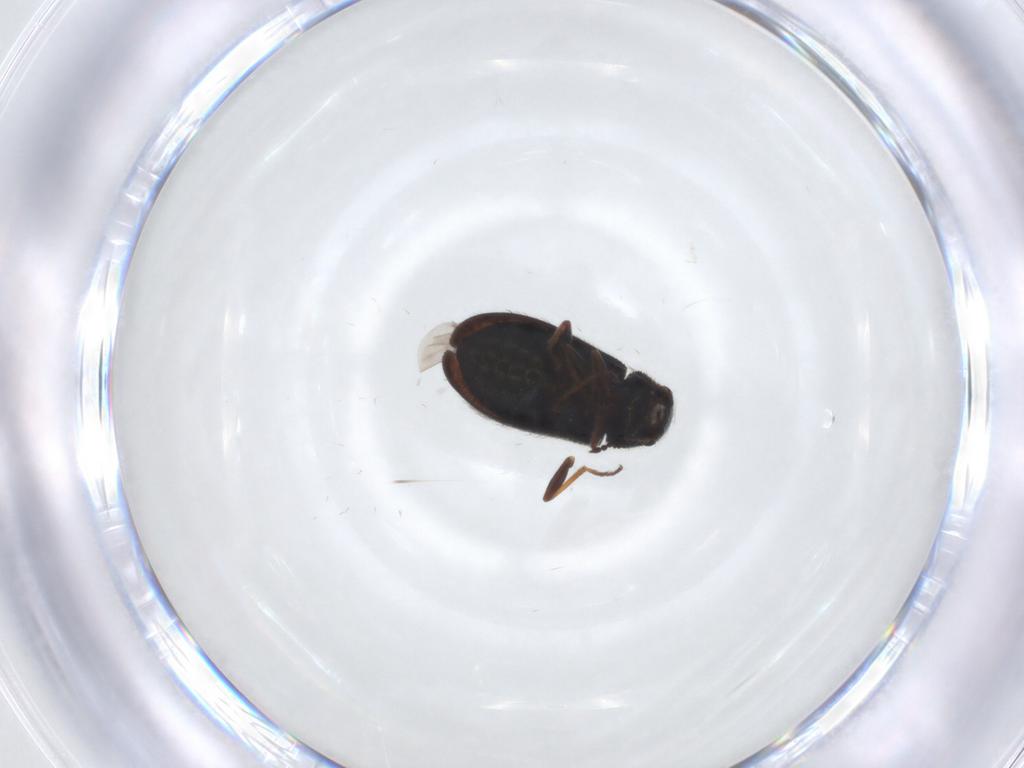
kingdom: Animalia
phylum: Arthropoda
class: Insecta
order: Coleoptera
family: Melyridae
